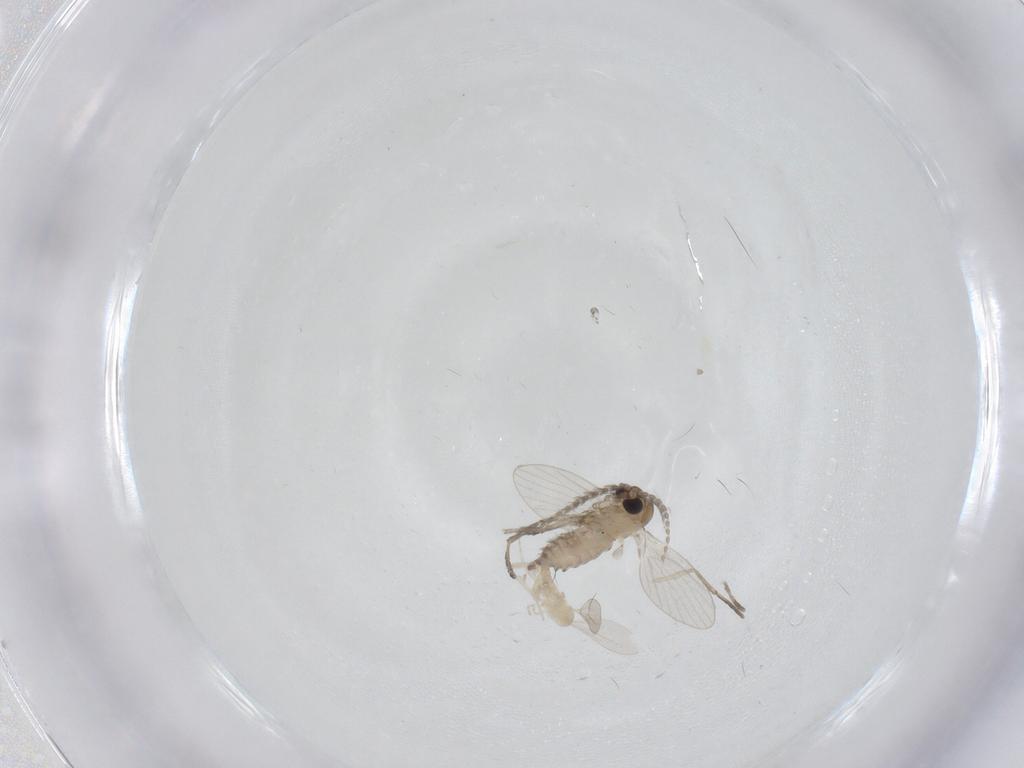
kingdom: Animalia
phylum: Arthropoda
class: Insecta
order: Diptera
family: Psychodidae
